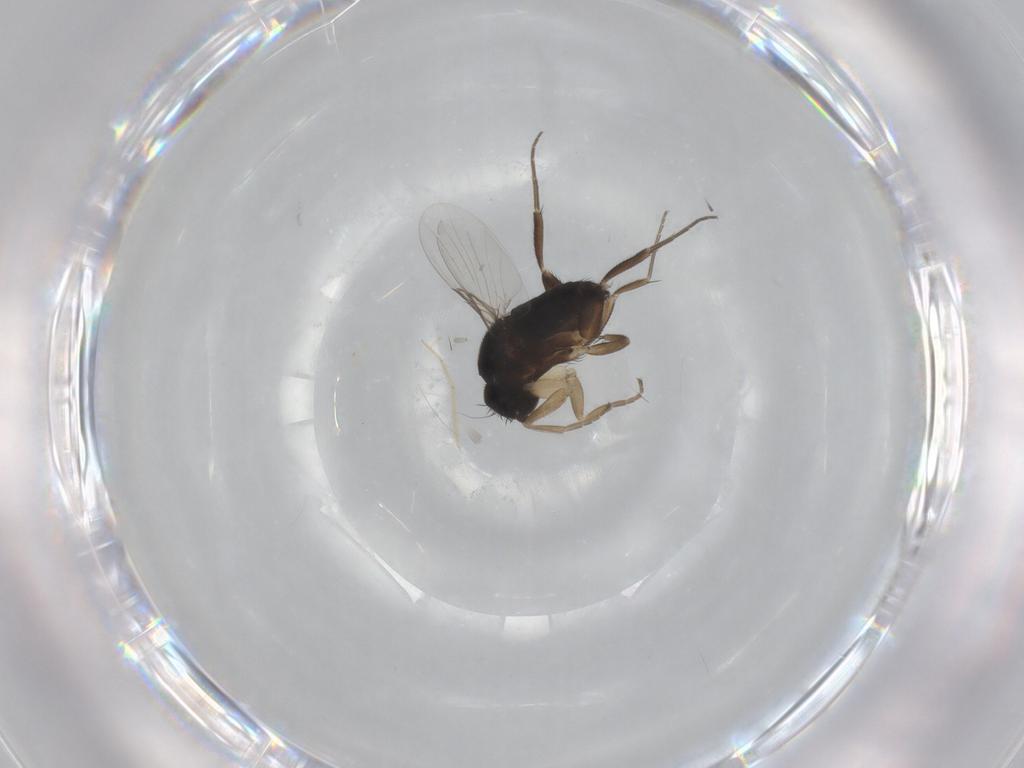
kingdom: Animalia
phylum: Arthropoda
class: Insecta
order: Diptera
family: Phoridae
